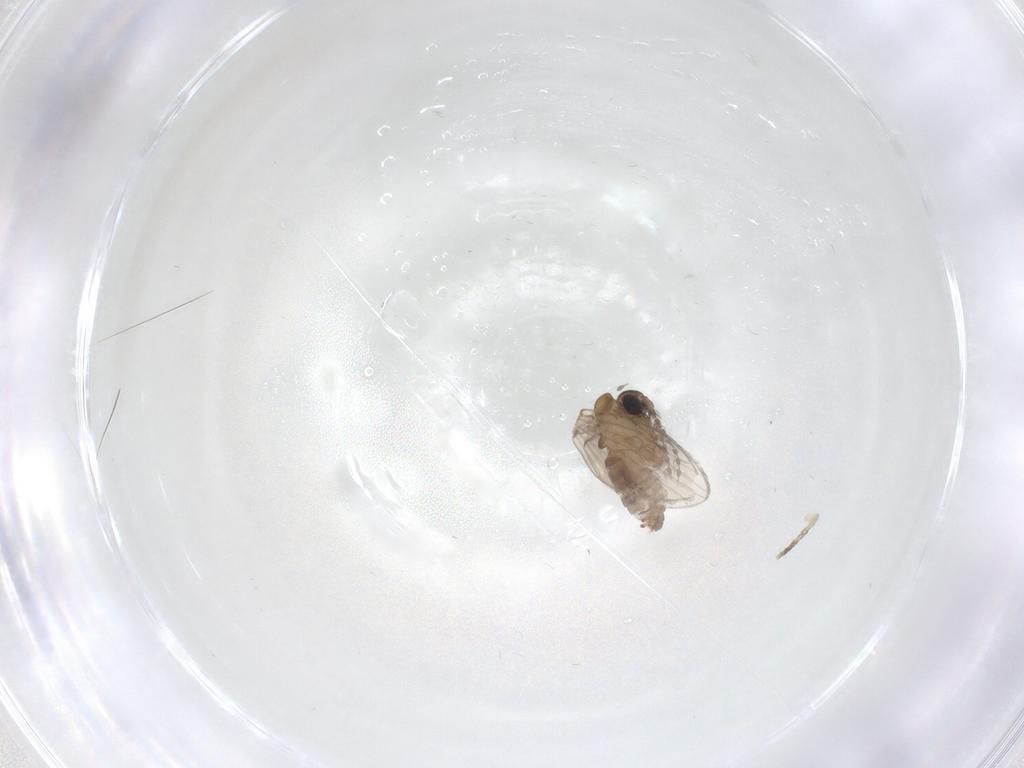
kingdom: Animalia
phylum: Arthropoda
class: Insecta
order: Diptera
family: Psychodidae
